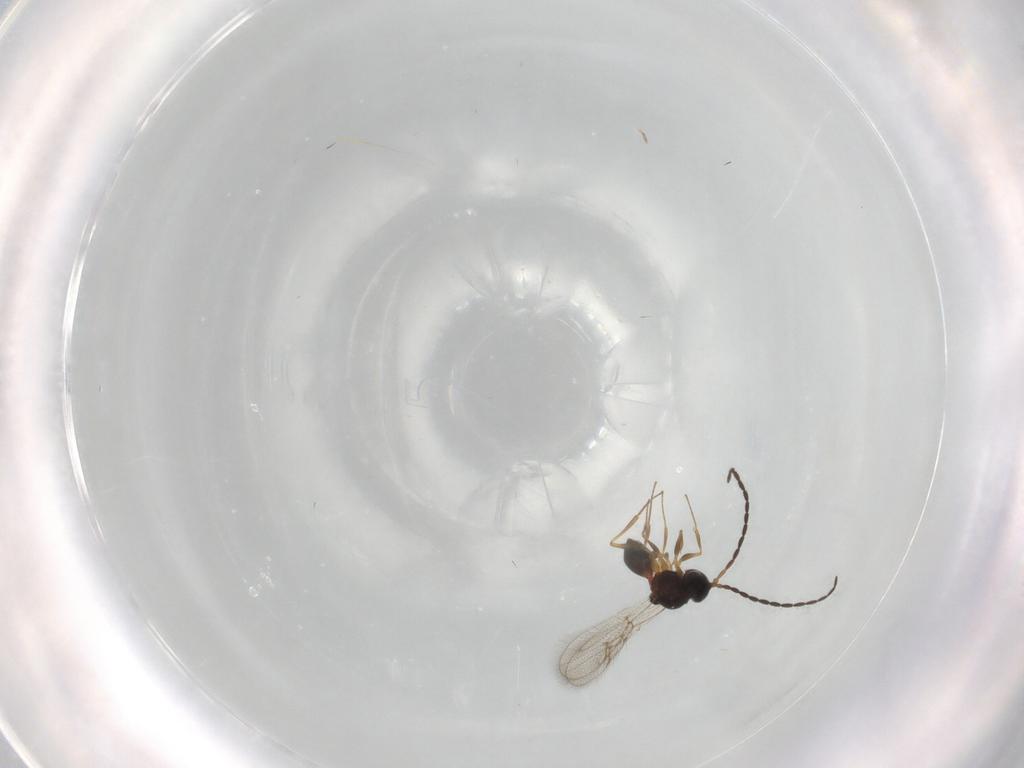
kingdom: Animalia
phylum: Arthropoda
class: Insecta
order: Hymenoptera
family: Figitidae
